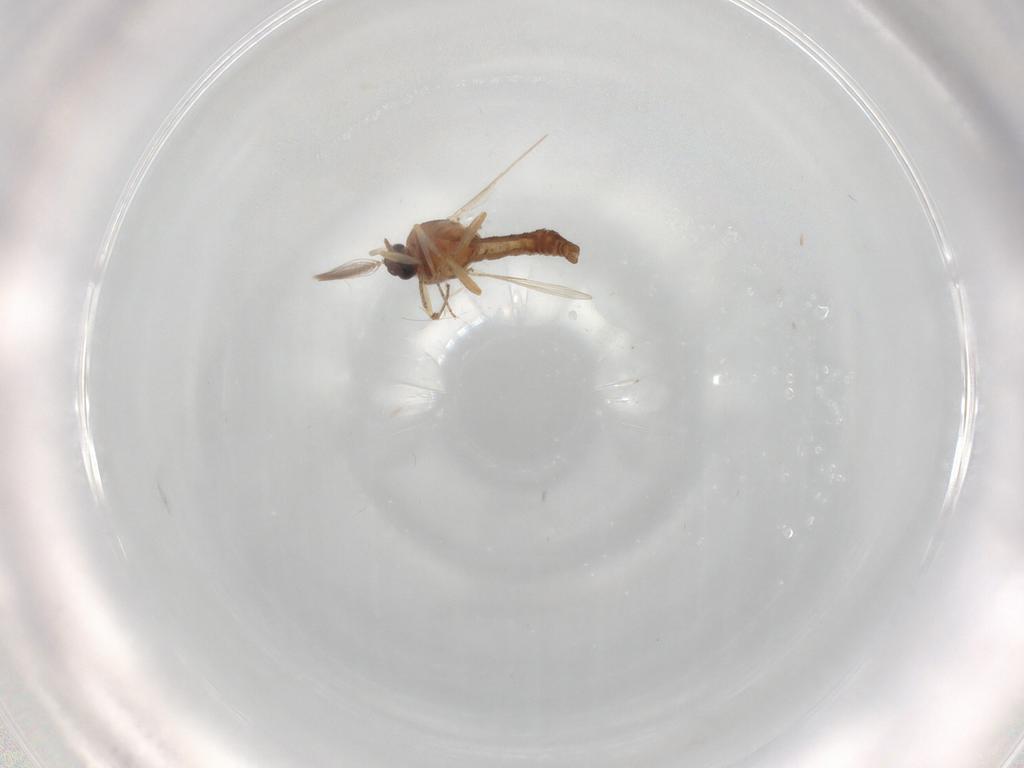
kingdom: Animalia
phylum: Arthropoda
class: Insecta
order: Diptera
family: Ceratopogonidae
